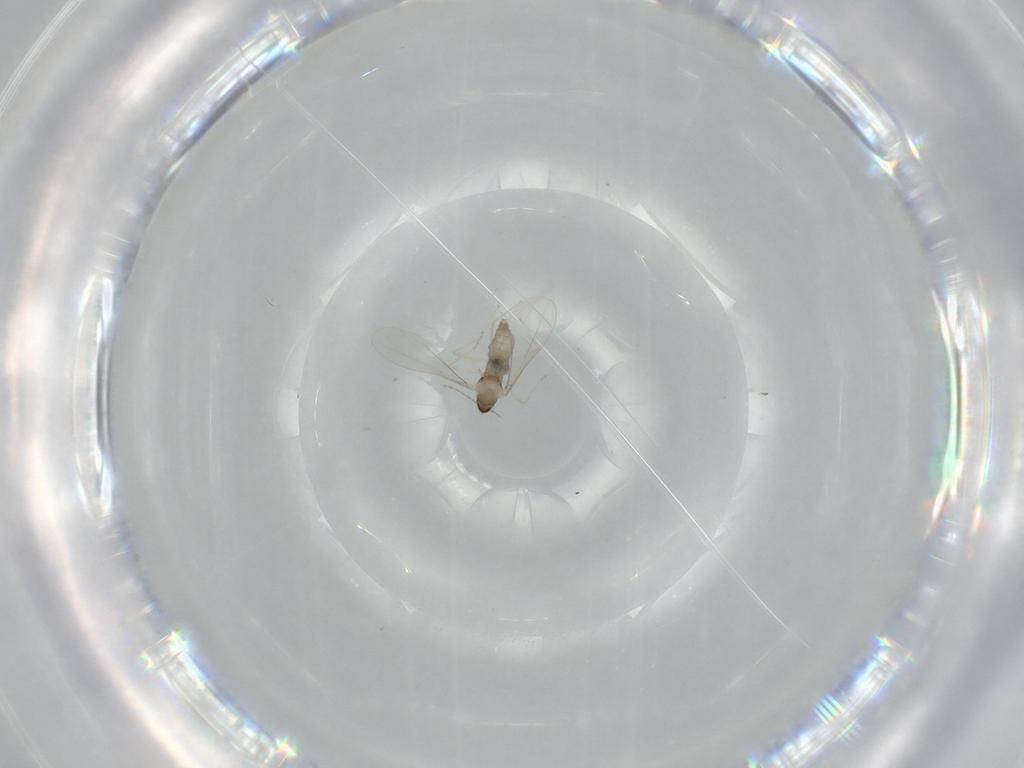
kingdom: Animalia
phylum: Arthropoda
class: Insecta
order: Diptera
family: Cecidomyiidae
